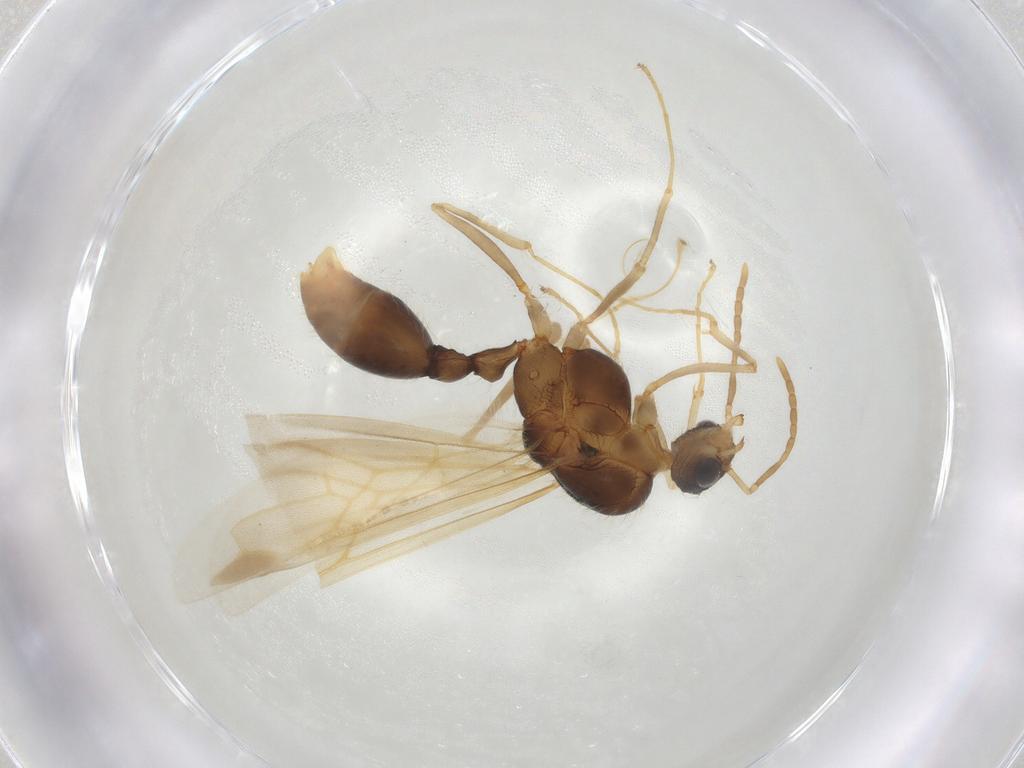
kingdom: Animalia
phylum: Arthropoda
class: Insecta
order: Hymenoptera
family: Formicidae
